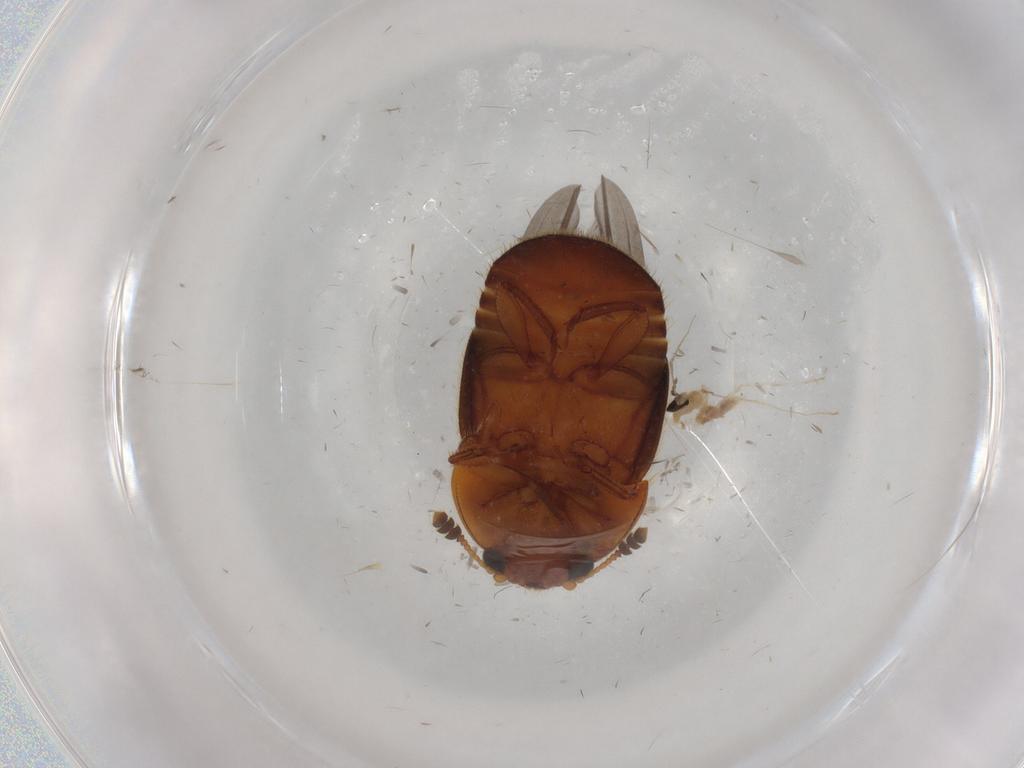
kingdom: Animalia
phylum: Arthropoda
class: Insecta
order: Coleoptera
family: Nitidulidae
